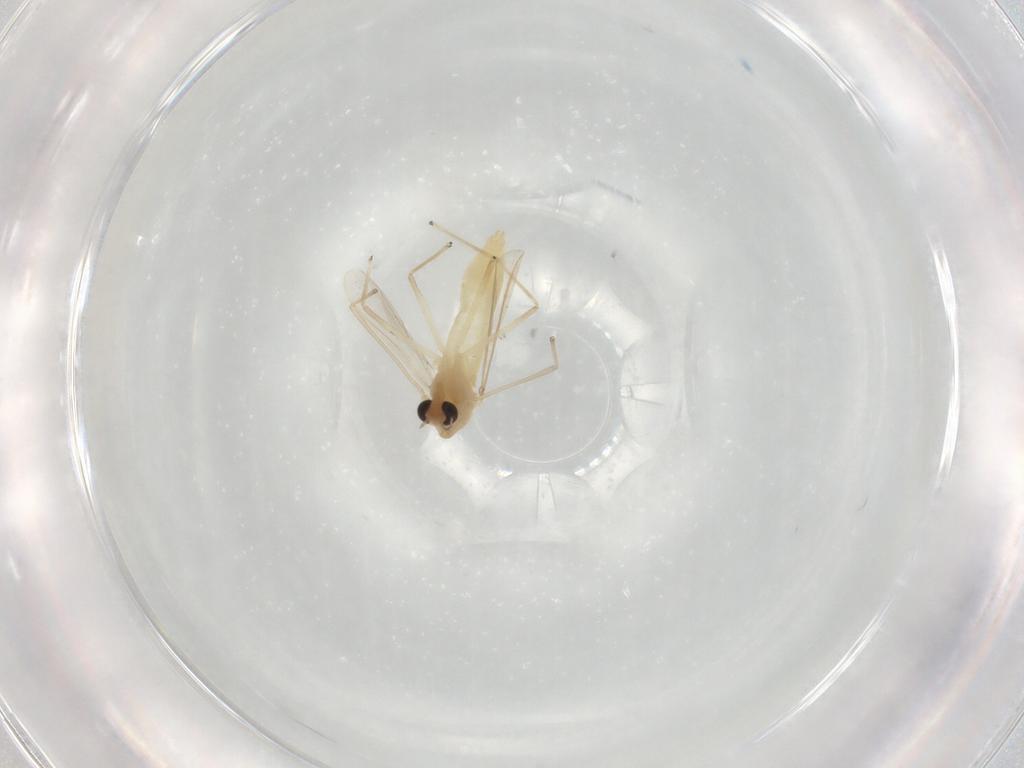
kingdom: Animalia
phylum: Arthropoda
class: Insecta
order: Diptera
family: Chironomidae
